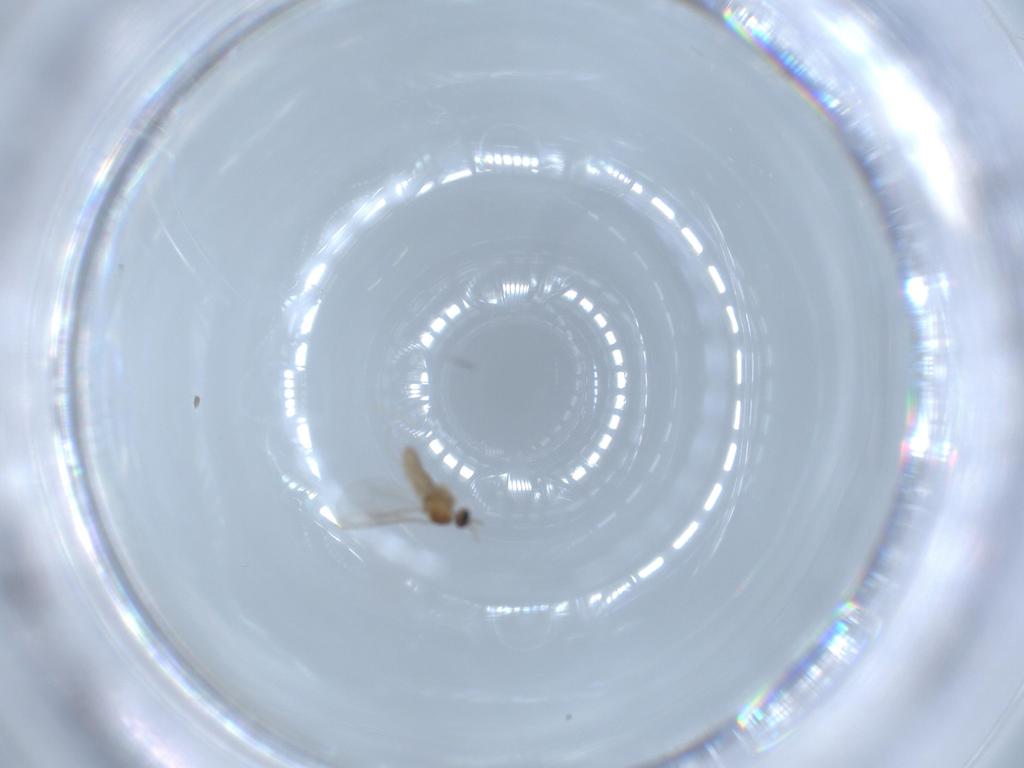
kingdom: Animalia
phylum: Arthropoda
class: Insecta
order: Diptera
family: Cecidomyiidae
